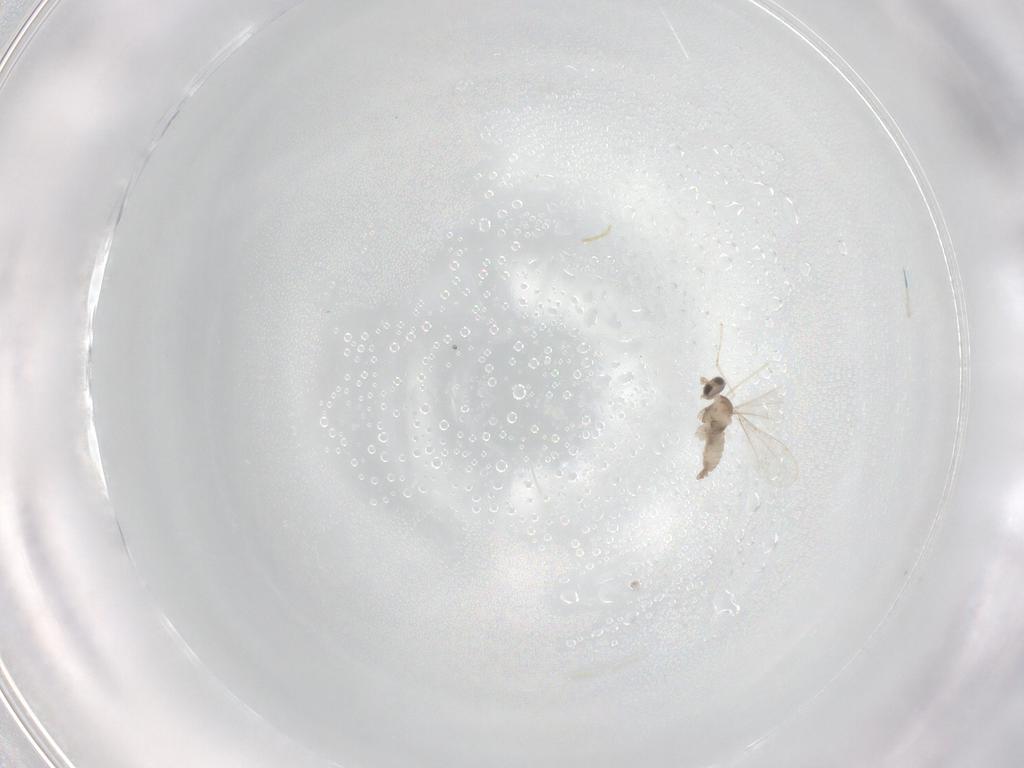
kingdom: Animalia
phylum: Arthropoda
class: Insecta
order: Diptera
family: Cecidomyiidae
